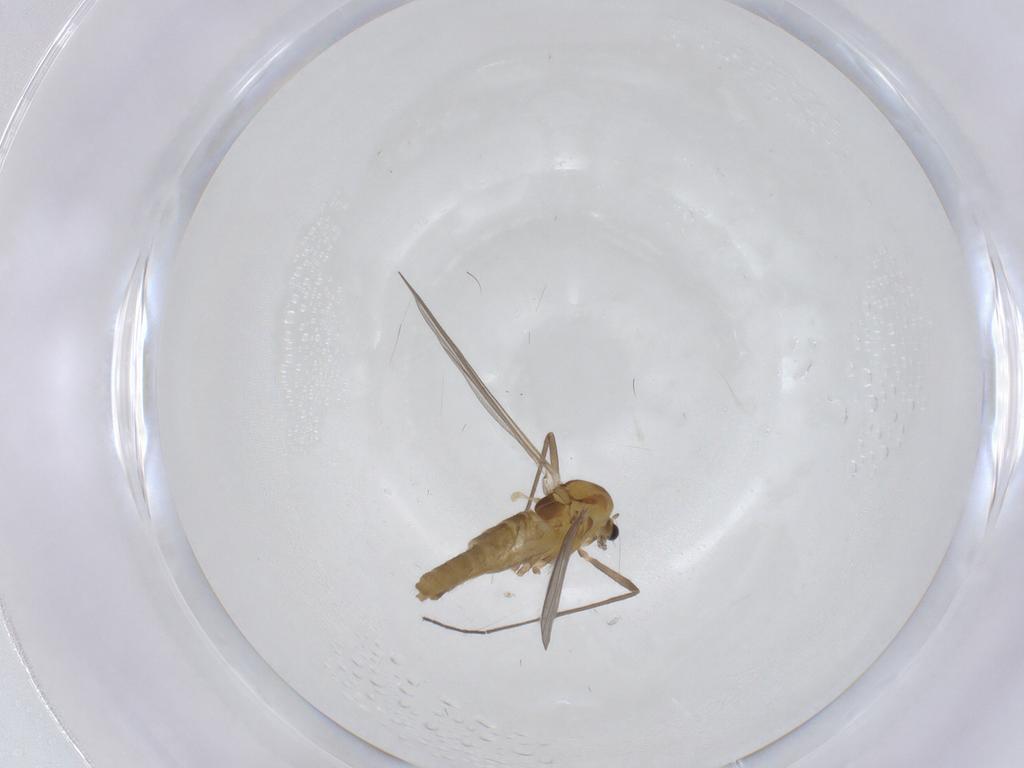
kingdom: Animalia
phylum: Arthropoda
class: Insecta
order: Diptera
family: Chironomidae
